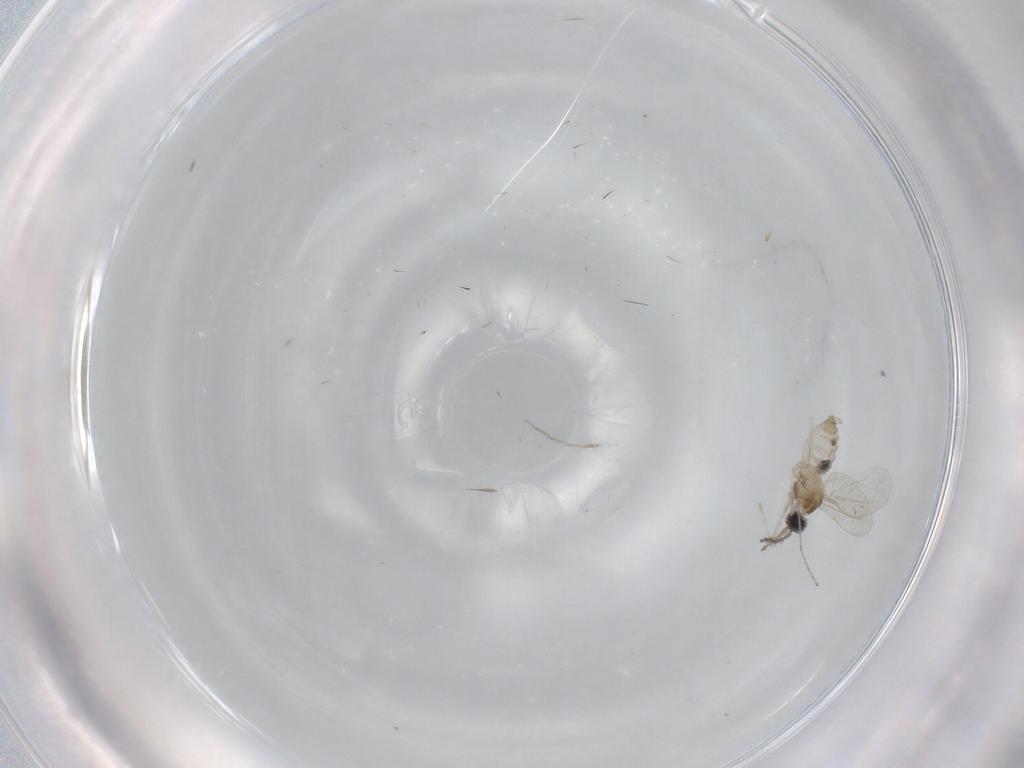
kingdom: Animalia
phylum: Arthropoda
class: Insecta
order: Diptera
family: Cecidomyiidae
